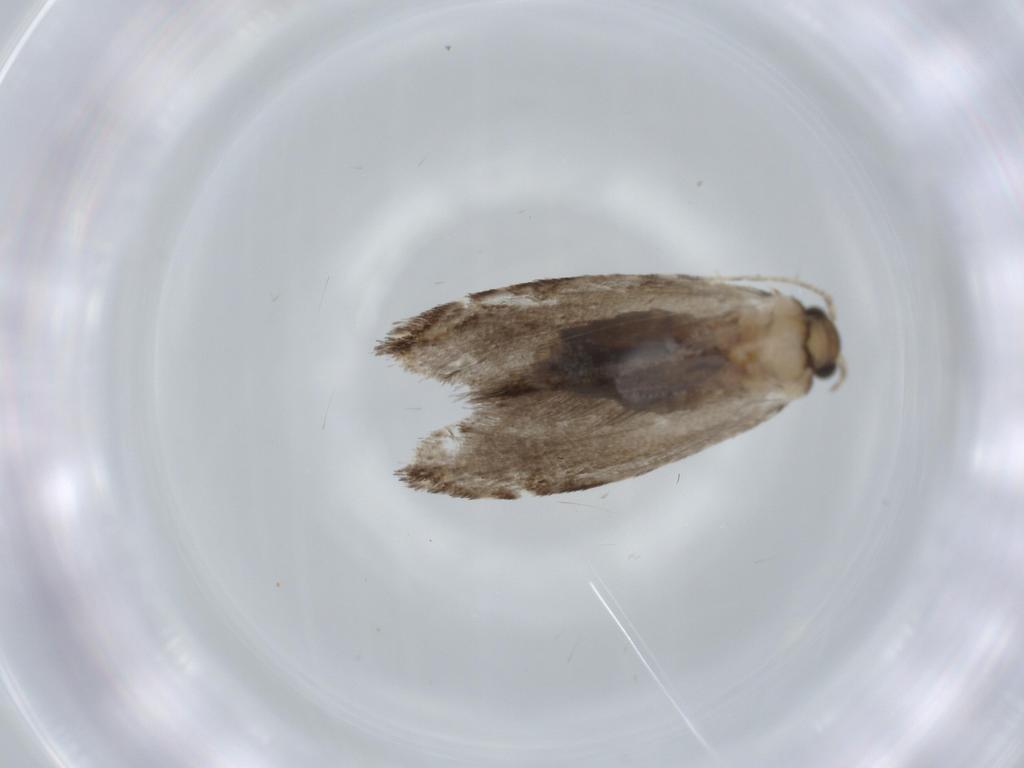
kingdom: Animalia
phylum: Arthropoda
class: Insecta
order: Lepidoptera
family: Tineidae
